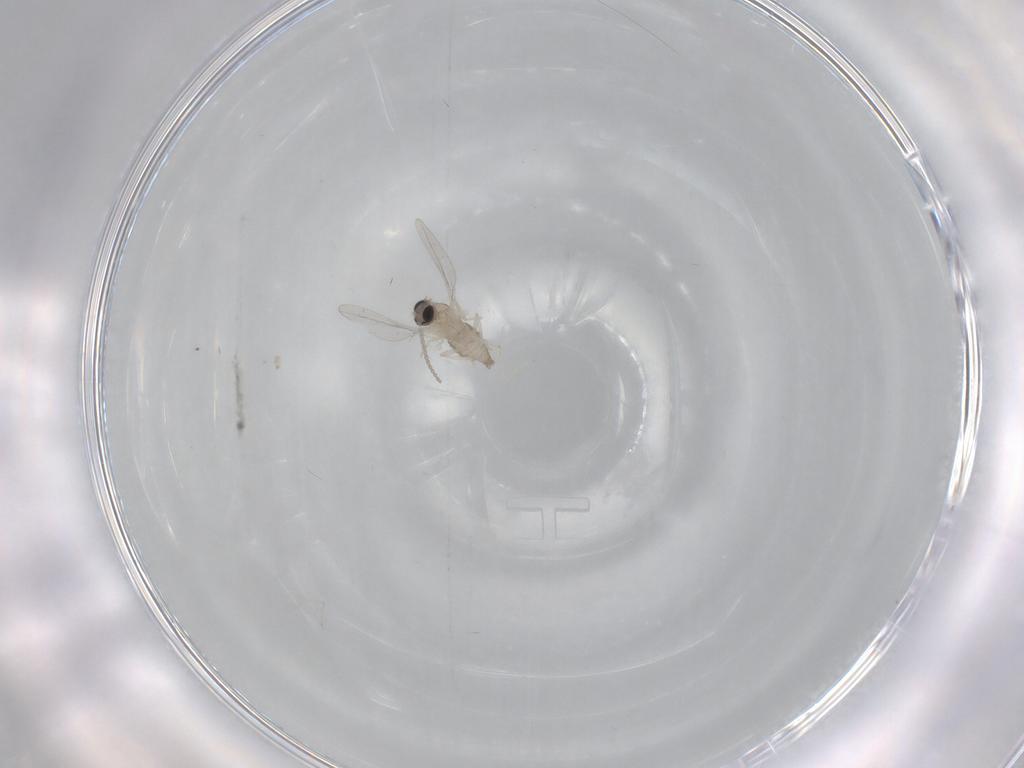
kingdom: Animalia
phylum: Arthropoda
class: Insecta
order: Diptera
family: Cecidomyiidae
